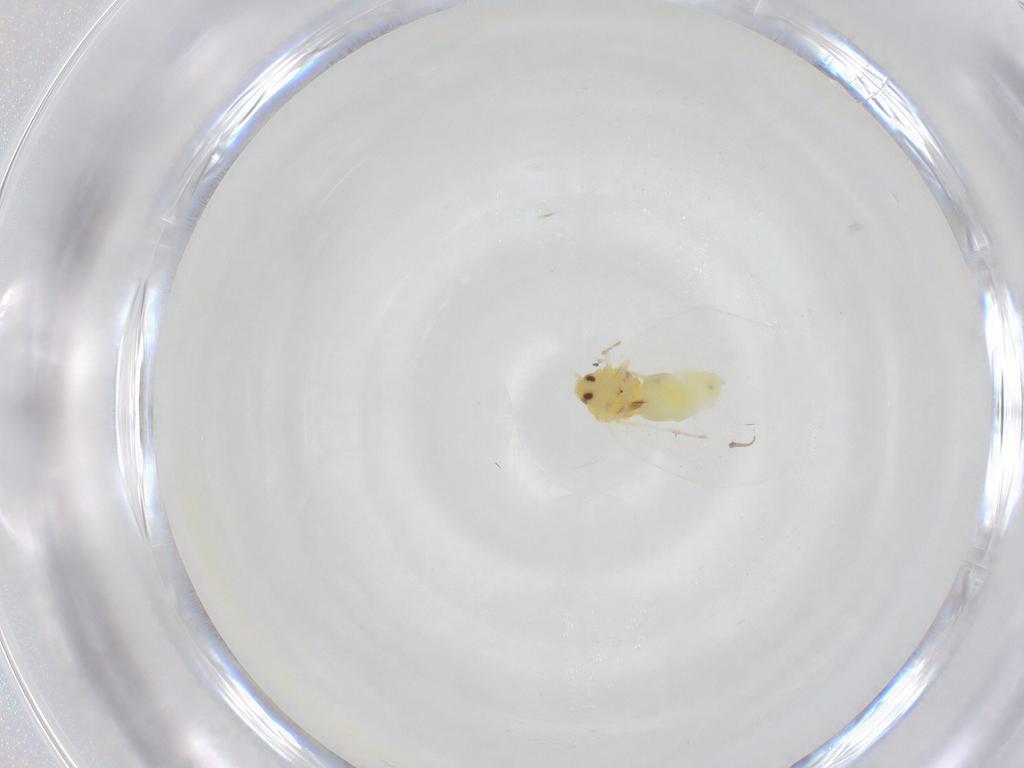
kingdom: Animalia
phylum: Arthropoda
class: Insecta
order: Hemiptera
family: Aleyrodidae
